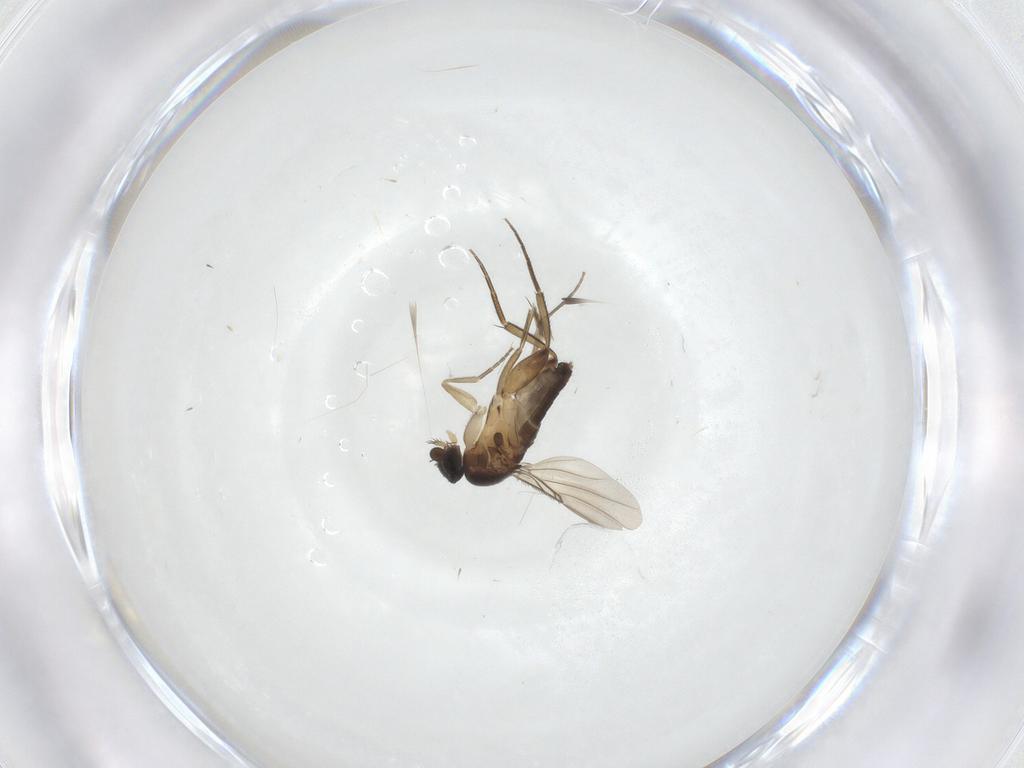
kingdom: Animalia
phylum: Arthropoda
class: Insecta
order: Diptera
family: Phoridae
